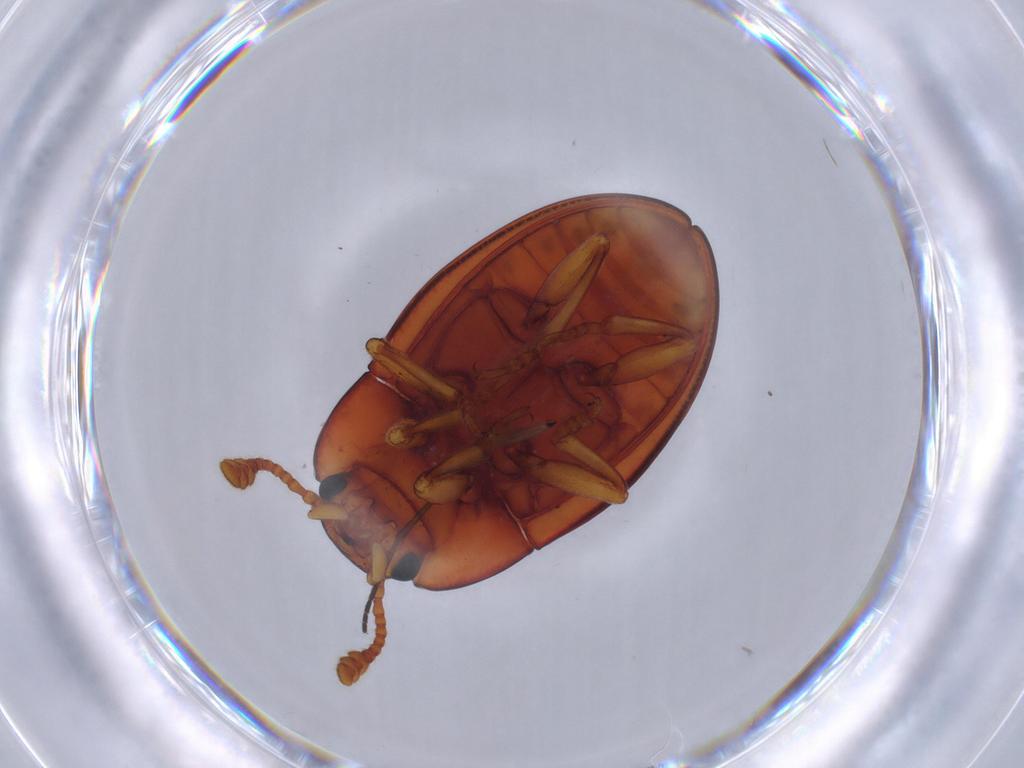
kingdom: Animalia
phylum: Arthropoda
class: Insecta
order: Coleoptera
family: Erotylidae
